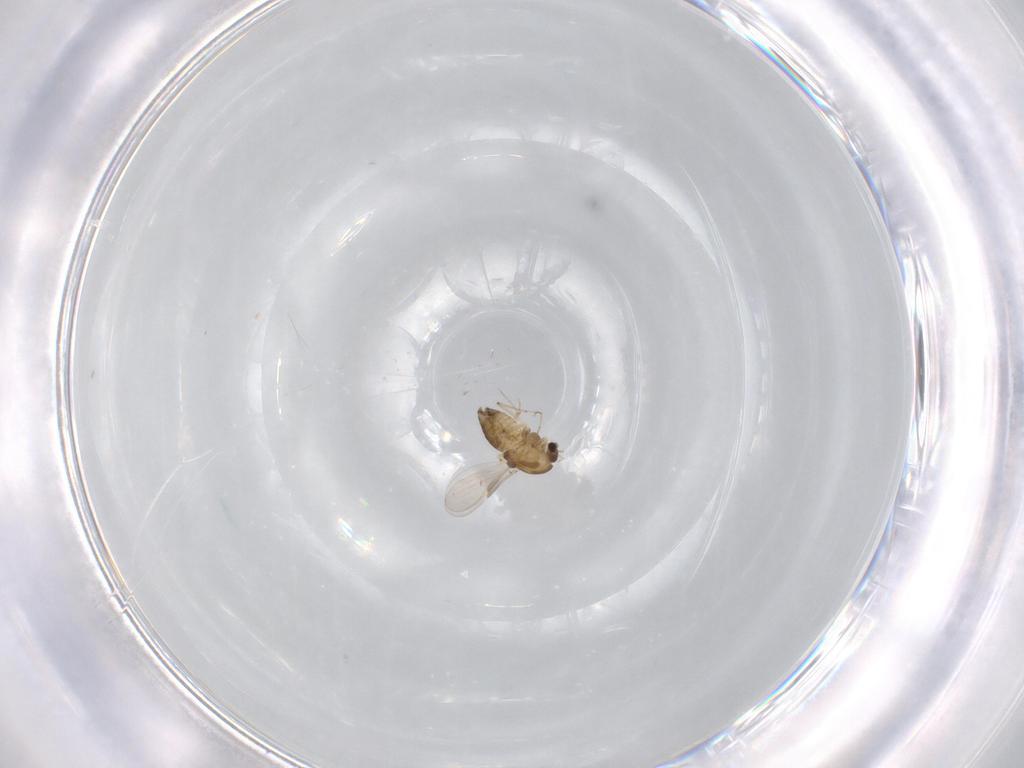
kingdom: Animalia
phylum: Arthropoda
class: Insecta
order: Diptera
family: Chironomidae
